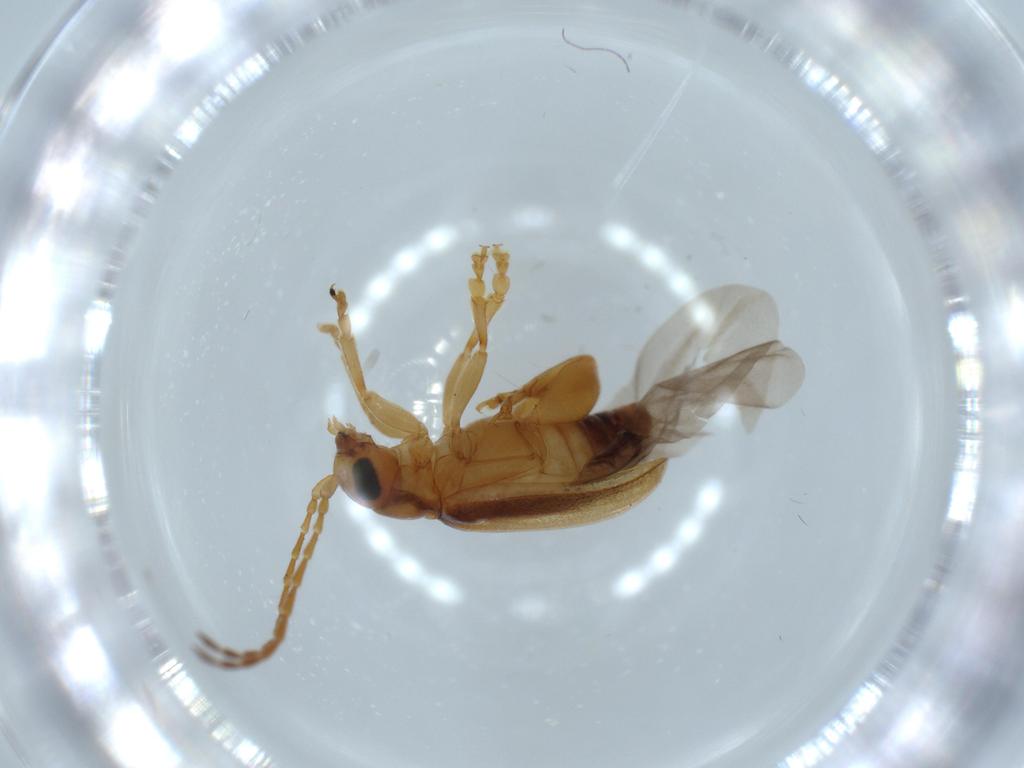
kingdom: Animalia
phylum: Arthropoda
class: Insecta
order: Coleoptera
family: Chrysomelidae
